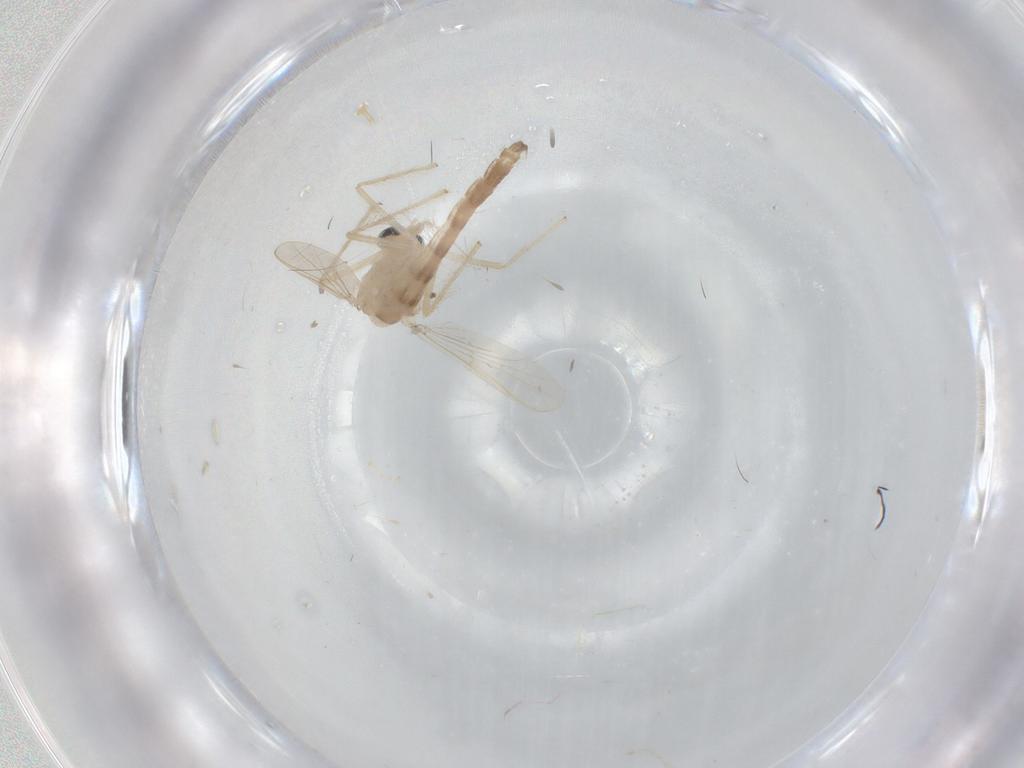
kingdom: Animalia
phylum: Arthropoda
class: Insecta
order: Diptera
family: Chironomidae
